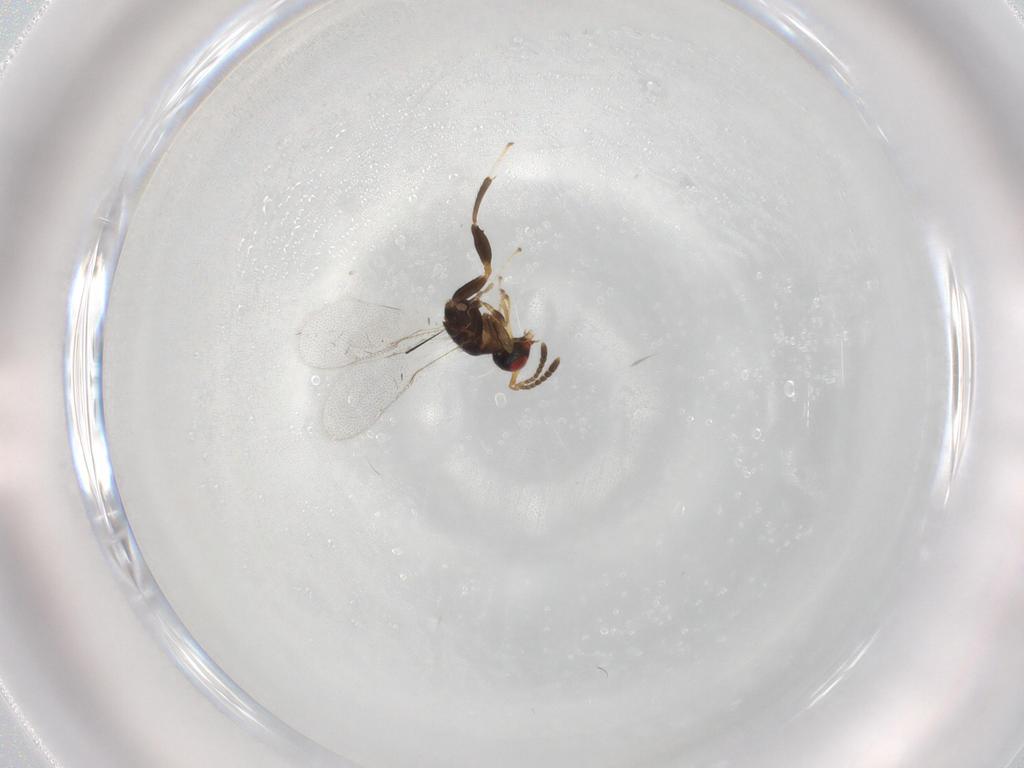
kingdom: Animalia
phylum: Arthropoda
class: Insecta
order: Hymenoptera
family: Torymidae
